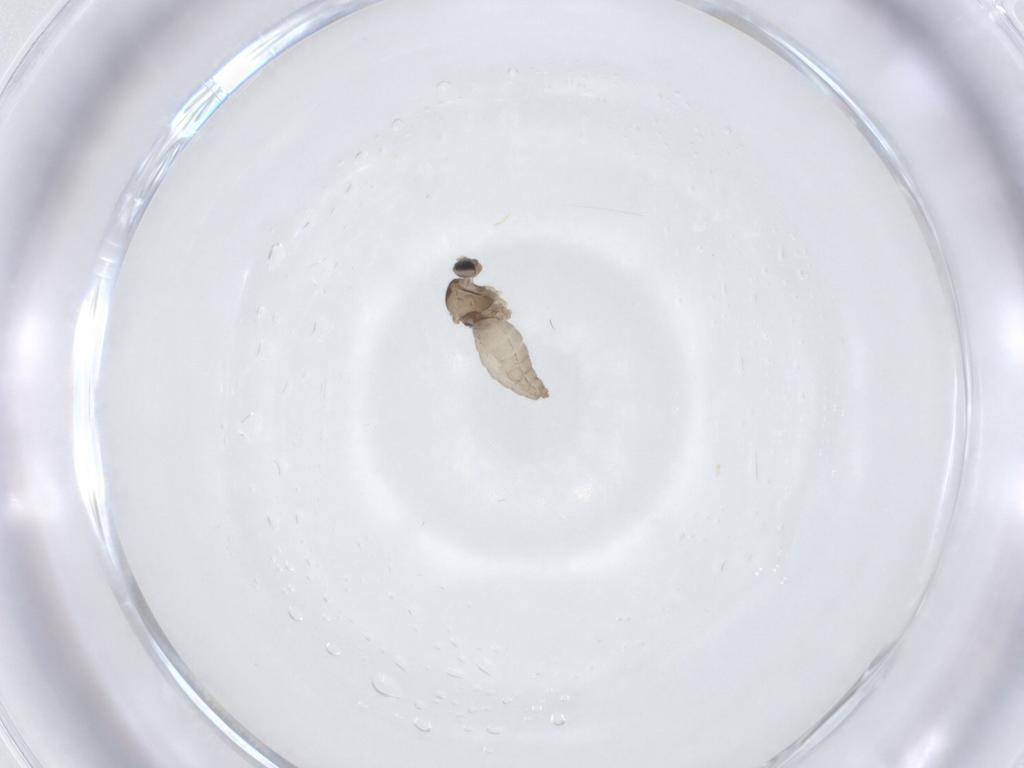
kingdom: Animalia
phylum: Arthropoda
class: Insecta
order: Diptera
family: Cecidomyiidae
